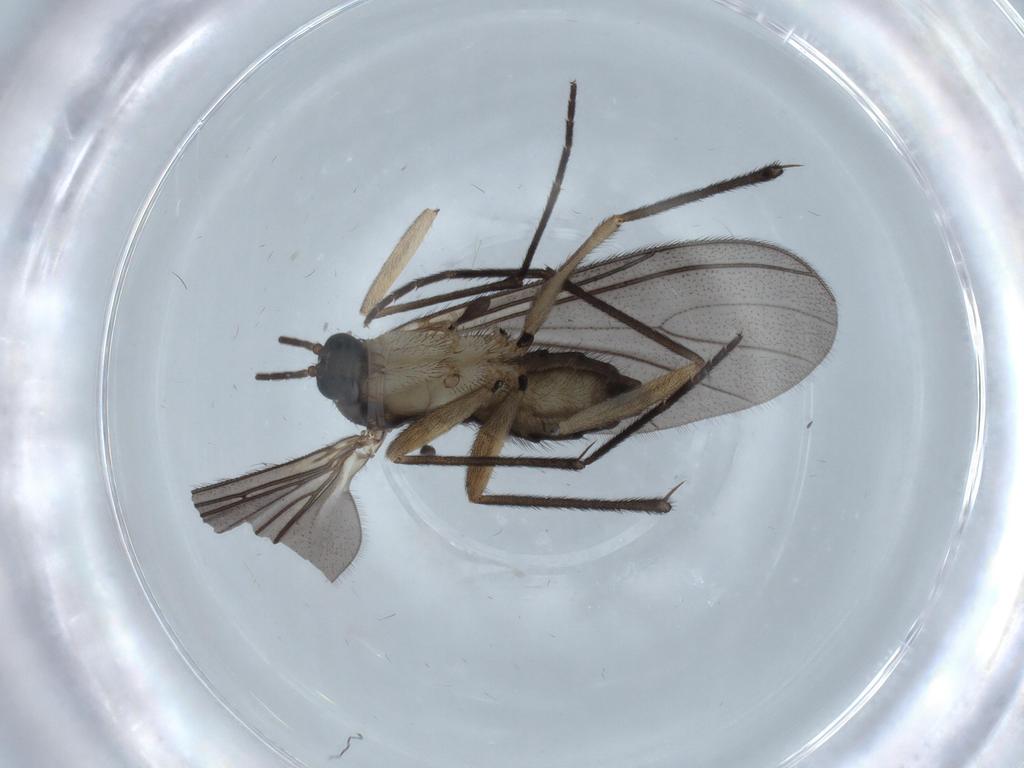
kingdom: Animalia
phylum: Arthropoda
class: Insecta
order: Diptera
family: Sciaridae
